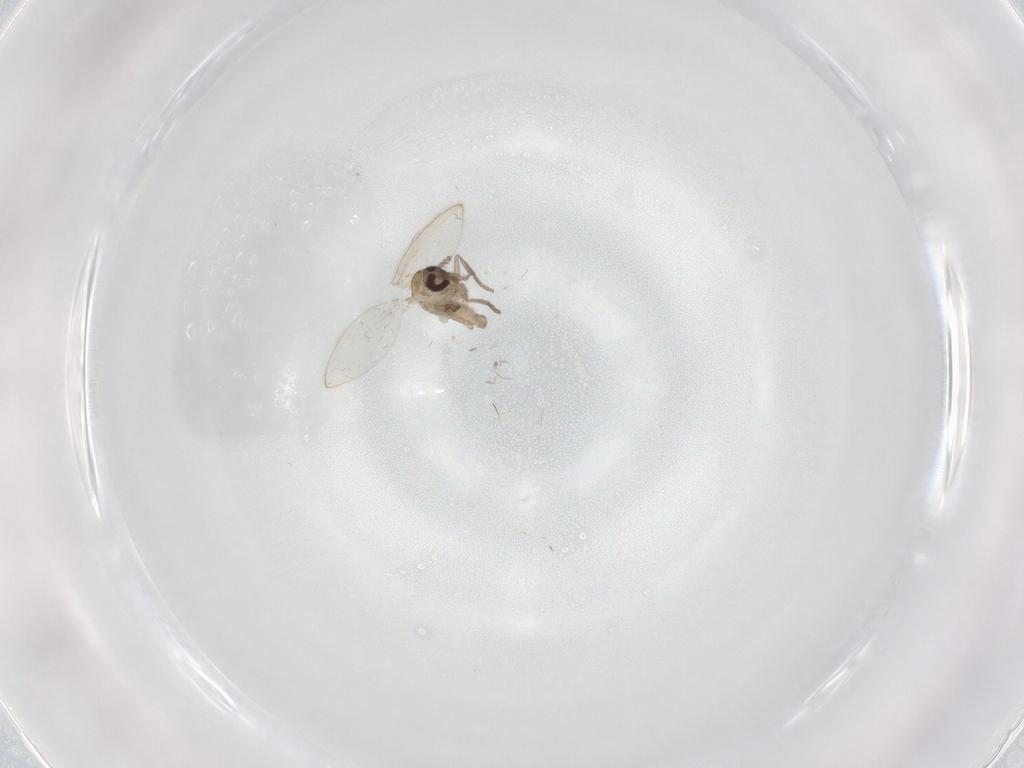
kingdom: Animalia
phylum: Arthropoda
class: Insecta
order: Diptera
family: Psychodidae
